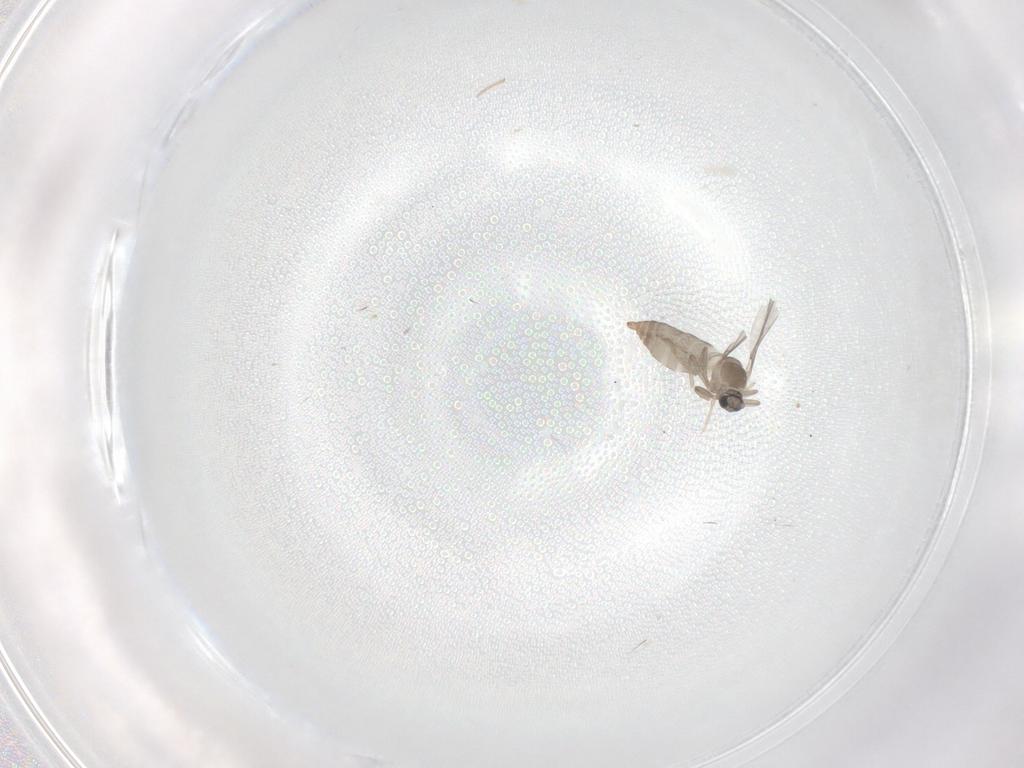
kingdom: Animalia
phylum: Arthropoda
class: Insecta
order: Diptera
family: Cecidomyiidae
